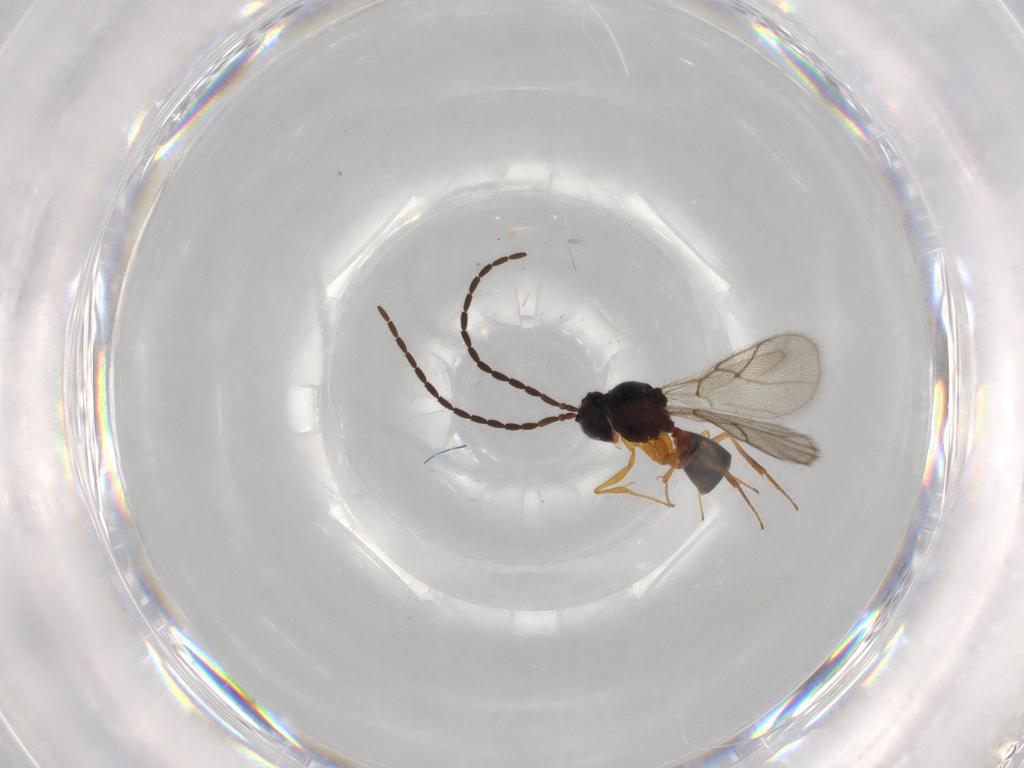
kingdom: Animalia
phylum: Arthropoda
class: Insecta
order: Hymenoptera
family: Figitidae
